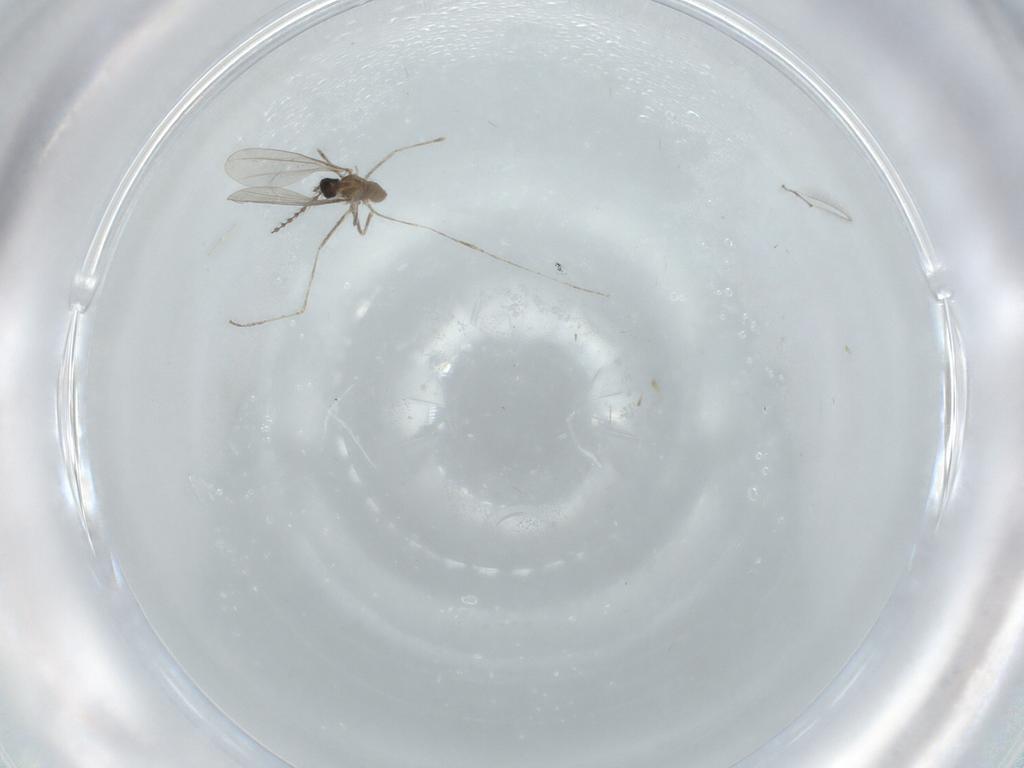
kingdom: Animalia
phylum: Arthropoda
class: Insecta
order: Diptera
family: Cecidomyiidae
